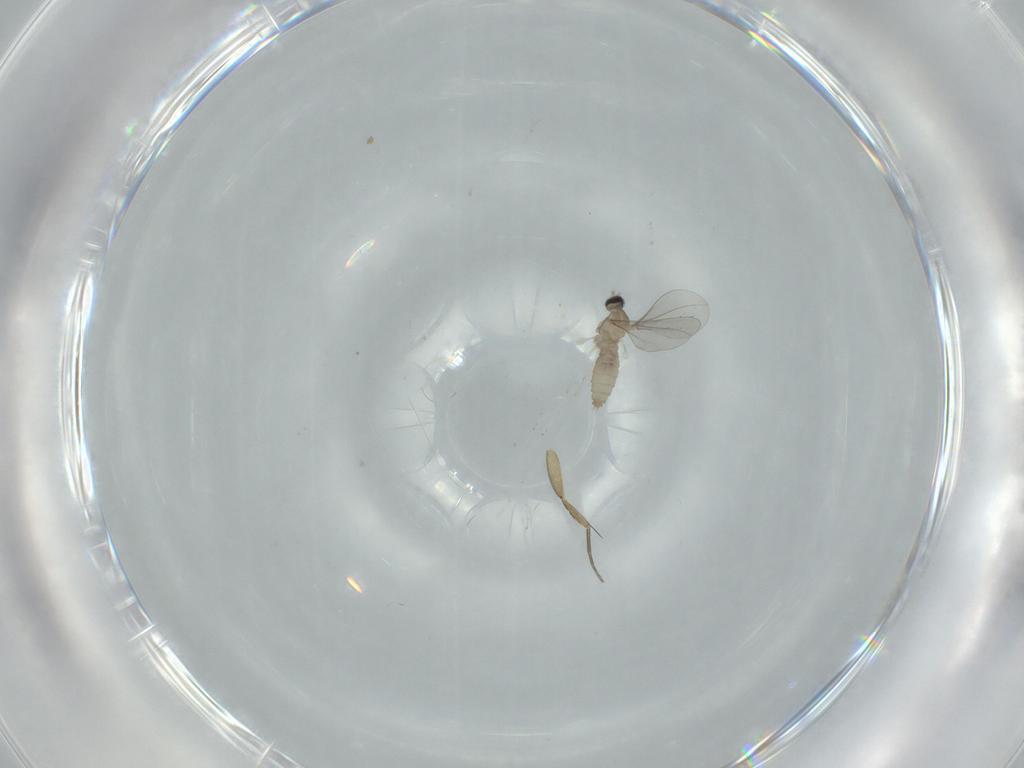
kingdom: Animalia
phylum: Arthropoda
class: Insecta
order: Diptera
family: Cecidomyiidae
